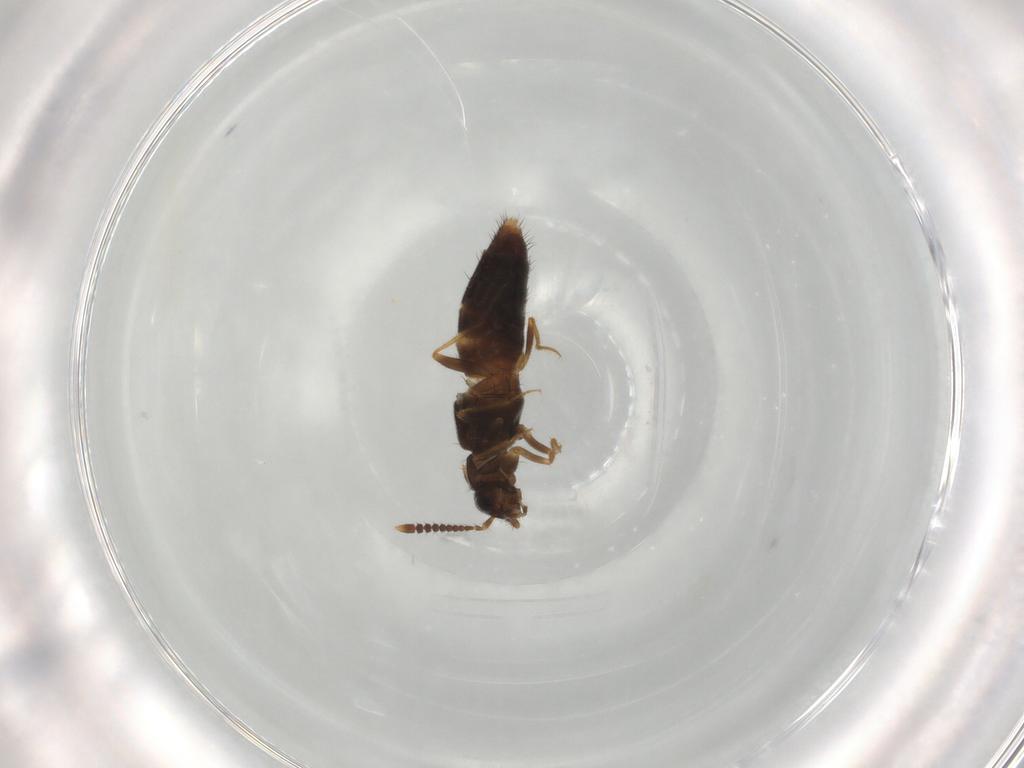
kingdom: Animalia
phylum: Arthropoda
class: Insecta
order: Coleoptera
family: Staphylinidae
